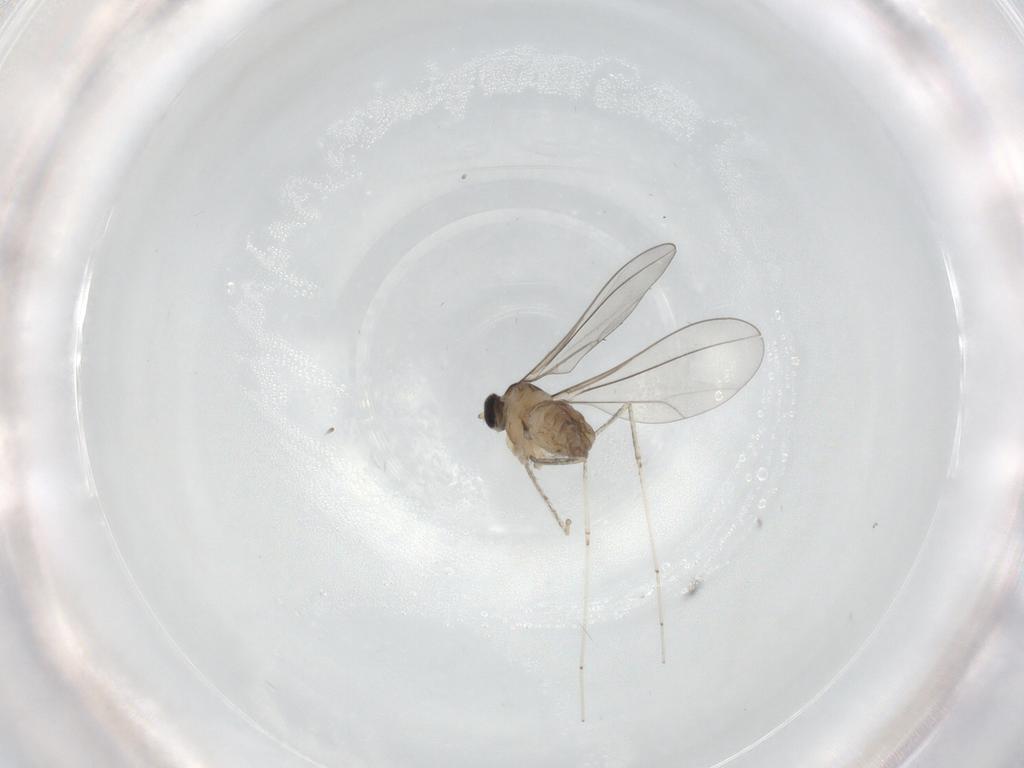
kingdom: Animalia
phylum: Arthropoda
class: Insecta
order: Diptera
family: Cecidomyiidae
